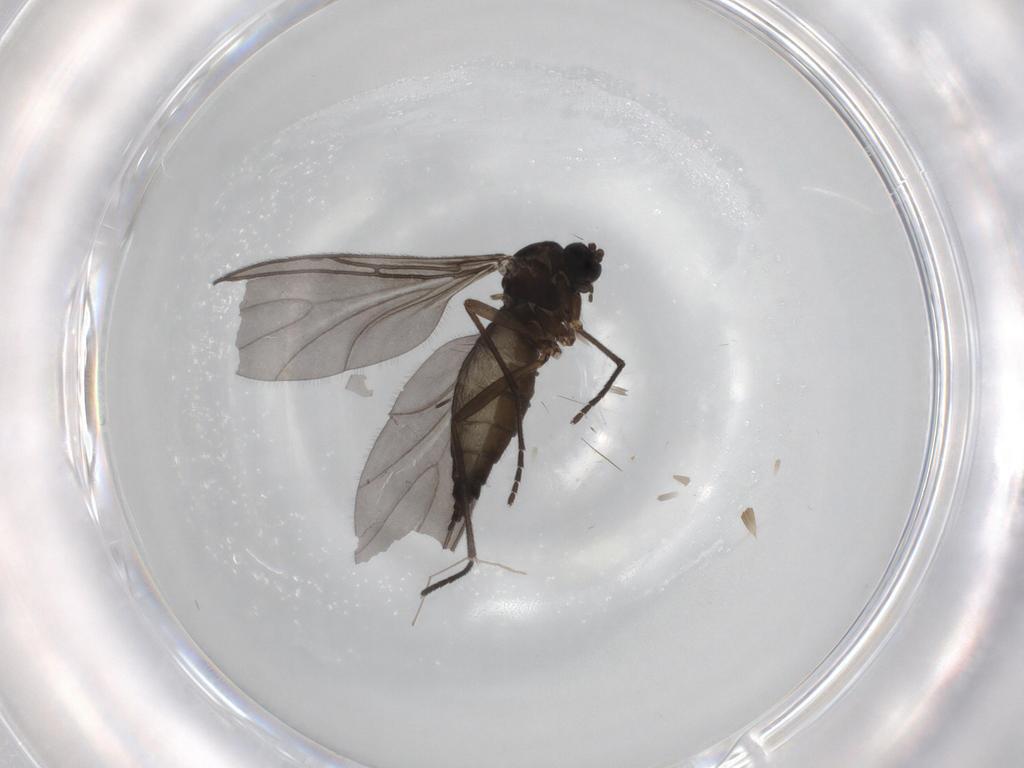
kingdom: Animalia
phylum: Arthropoda
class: Insecta
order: Diptera
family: Sciaridae
